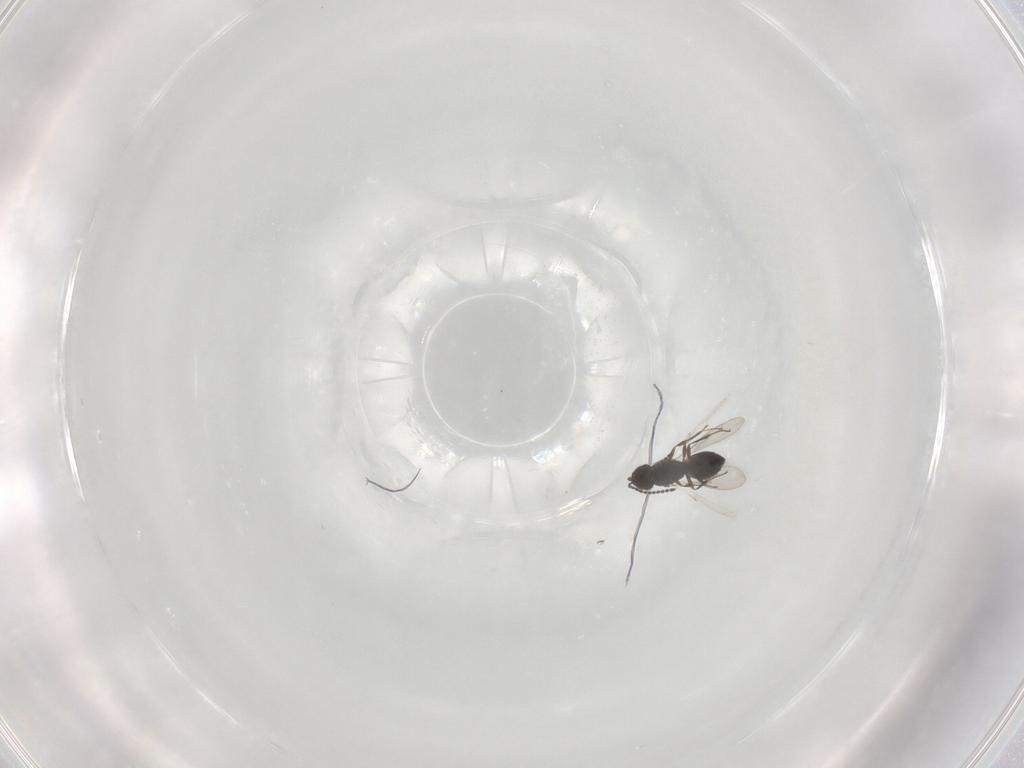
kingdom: Animalia
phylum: Arthropoda
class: Insecta
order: Hymenoptera
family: Scelionidae
